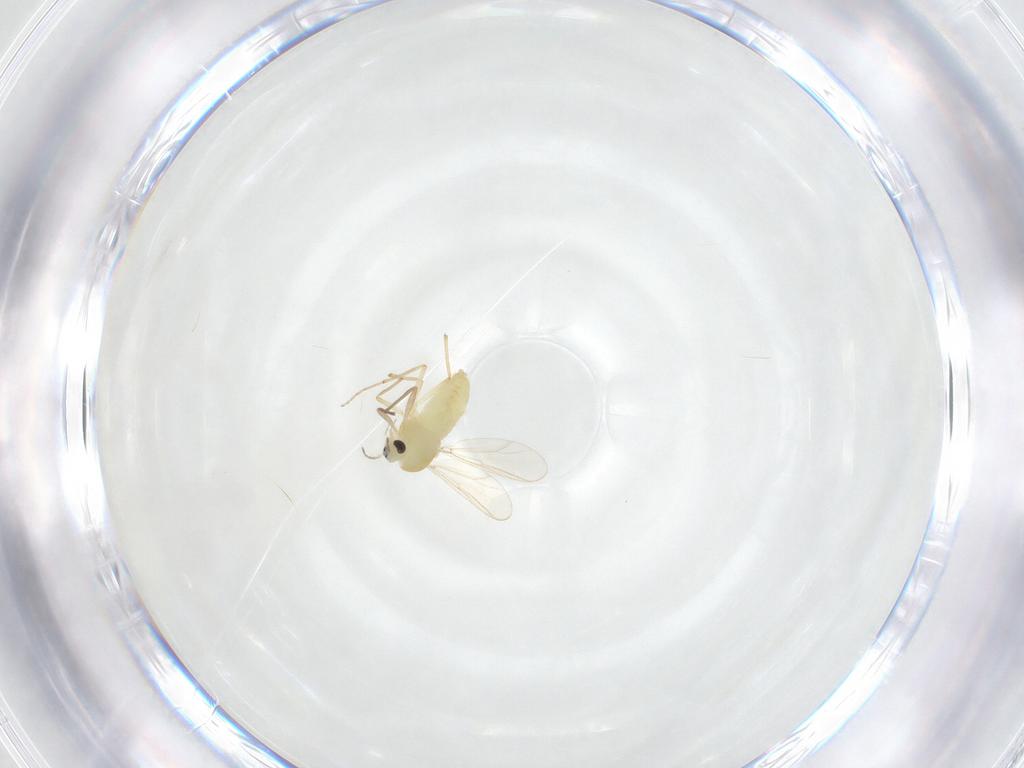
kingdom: Animalia
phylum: Arthropoda
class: Insecta
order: Diptera
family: Chironomidae
